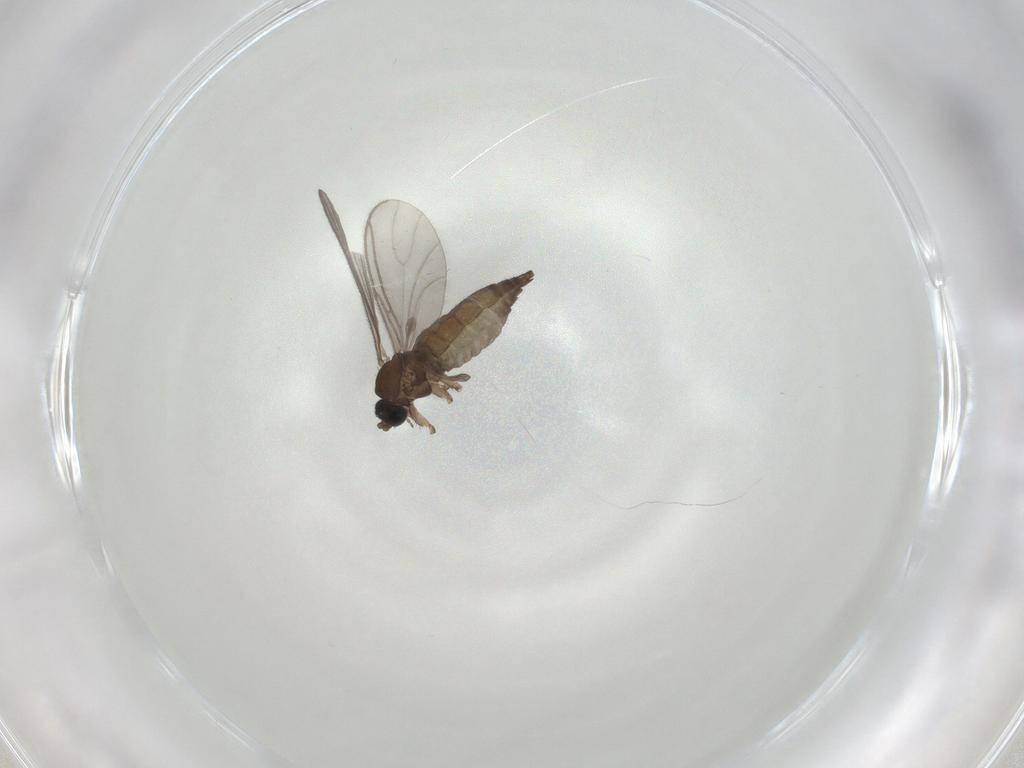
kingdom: Animalia
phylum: Arthropoda
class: Insecta
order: Diptera
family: Sciaridae
